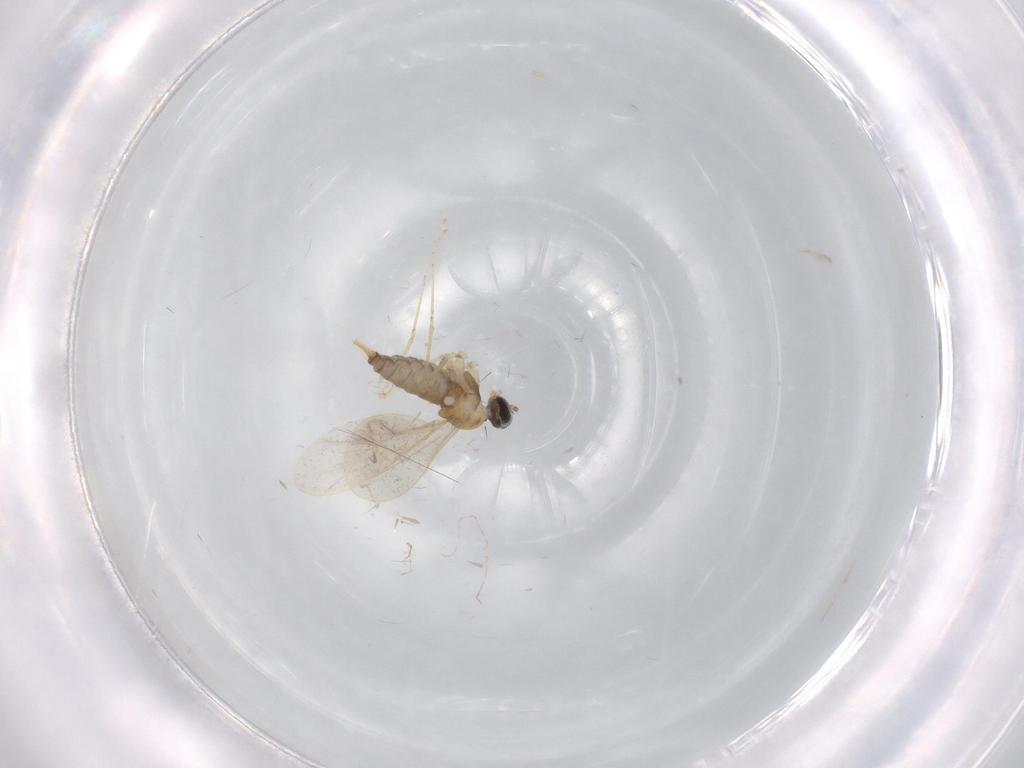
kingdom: Animalia
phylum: Arthropoda
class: Insecta
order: Diptera
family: Cecidomyiidae
